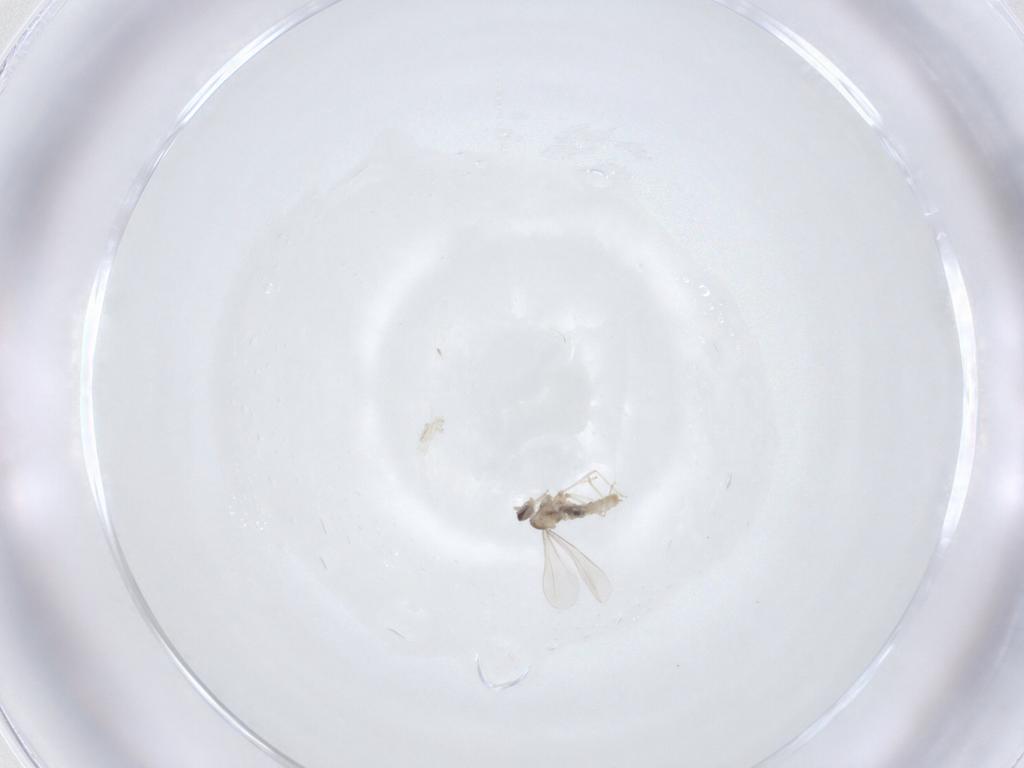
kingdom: Animalia
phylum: Arthropoda
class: Insecta
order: Diptera
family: Cecidomyiidae
